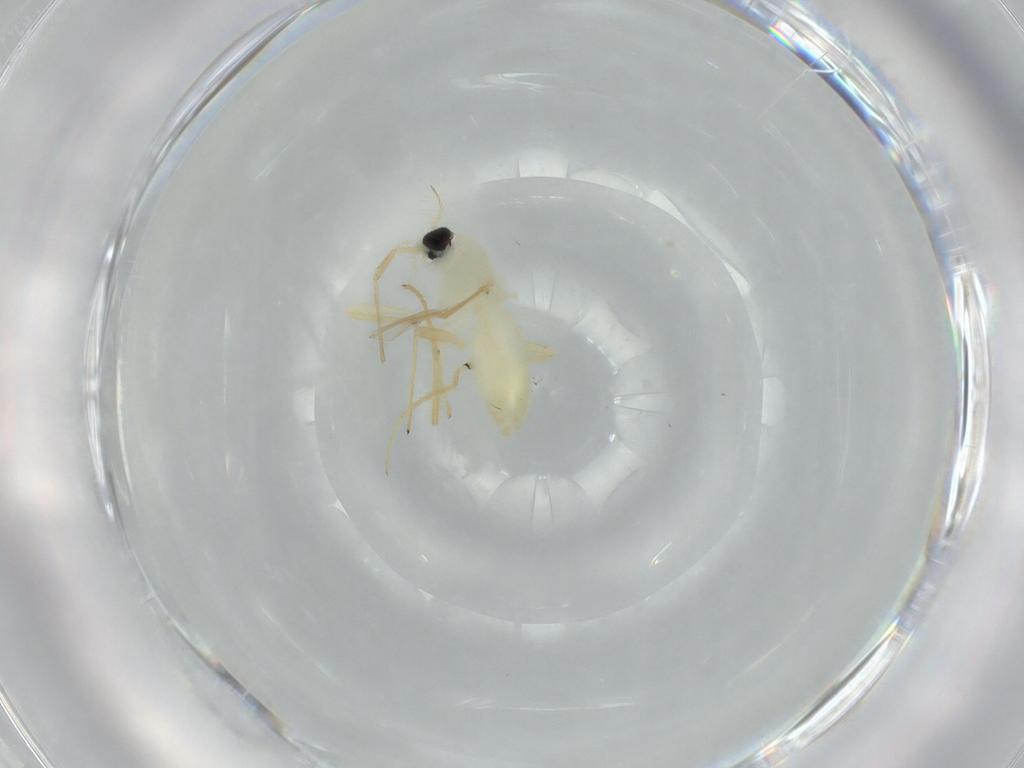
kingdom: Animalia
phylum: Arthropoda
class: Insecta
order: Diptera
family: Chironomidae
